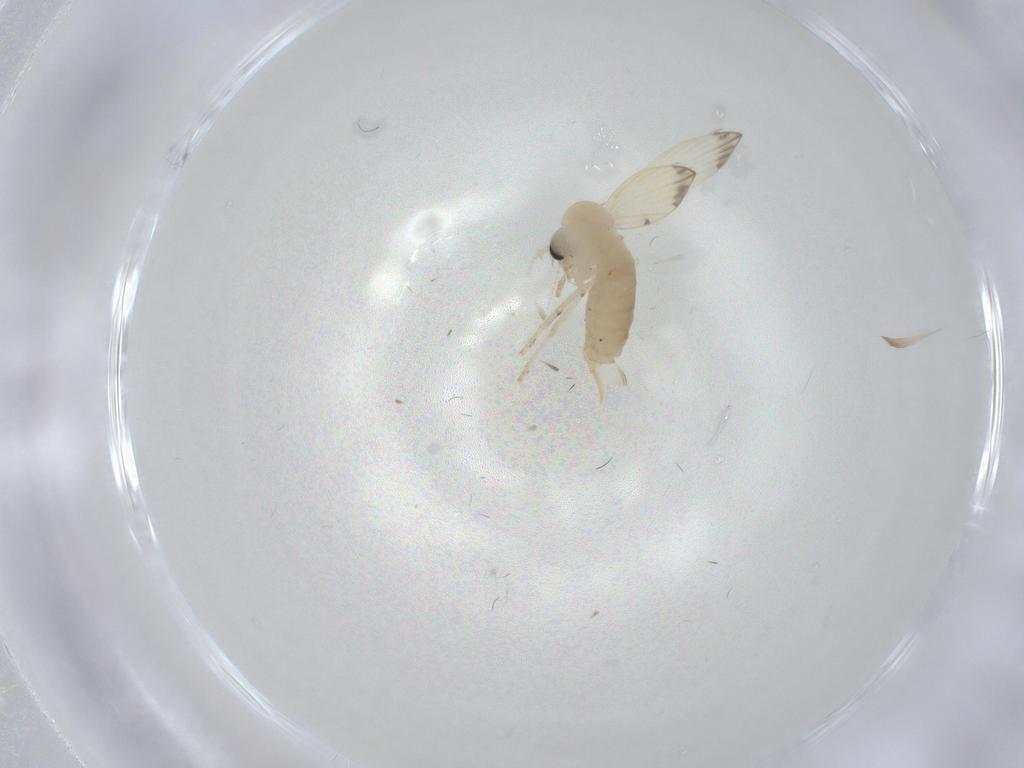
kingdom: Animalia
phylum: Arthropoda
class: Insecta
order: Diptera
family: Psychodidae
